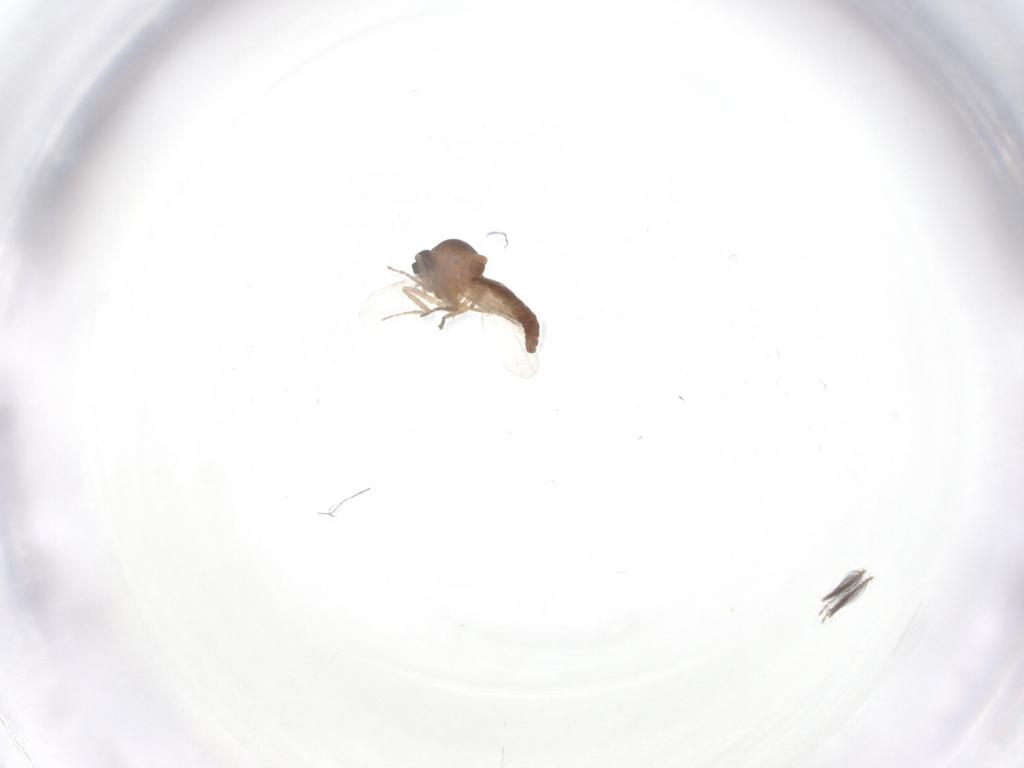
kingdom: Animalia
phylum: Arthropoda
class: Insecta
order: Diptera
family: Ceratopogonidae
